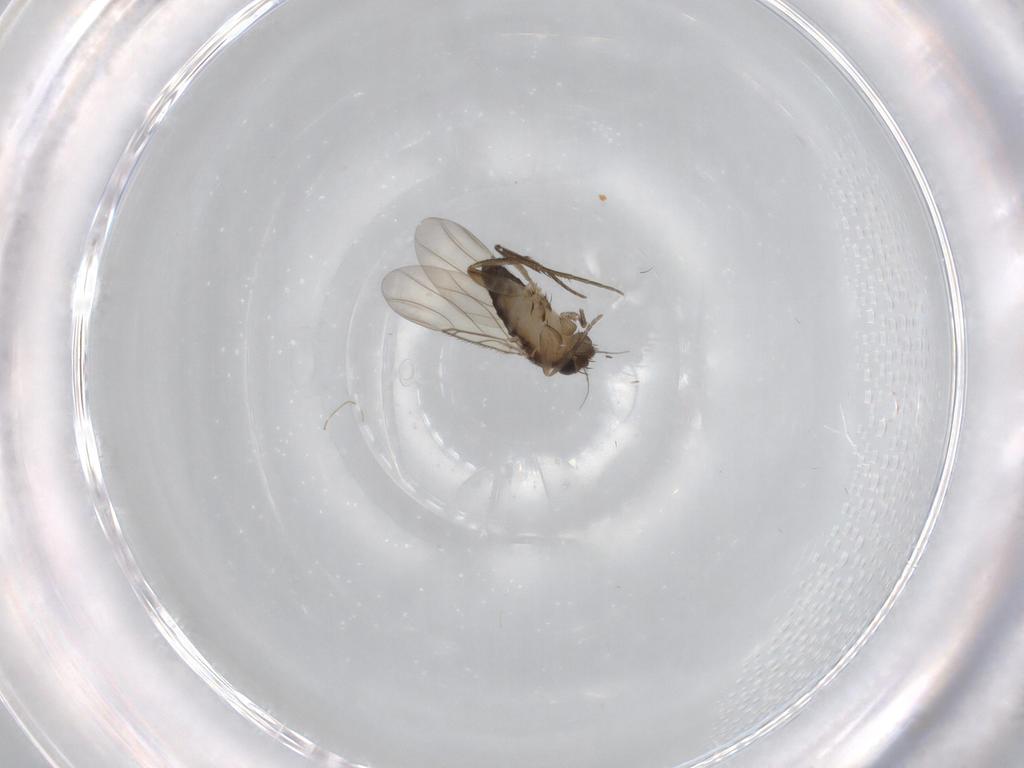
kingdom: Animalia
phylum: Arthropoda
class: Insecta
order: Diptera
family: Phoridae
